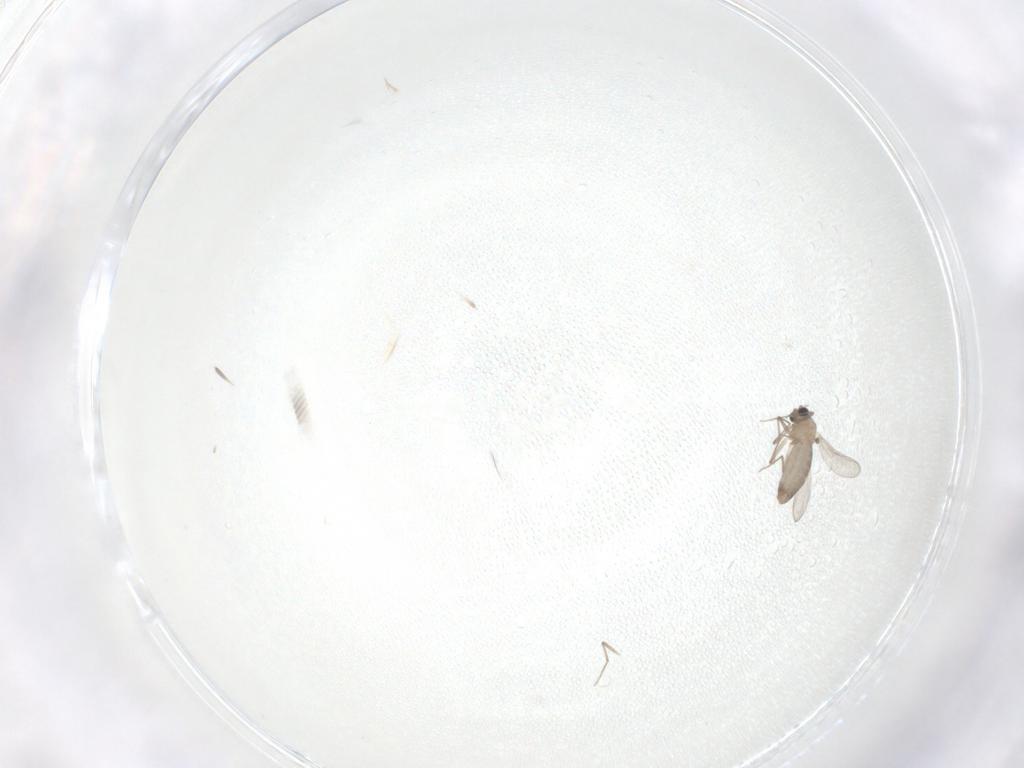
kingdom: Animalia
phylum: Arthropoda
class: Insecta
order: Diptera
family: Chironomidae
